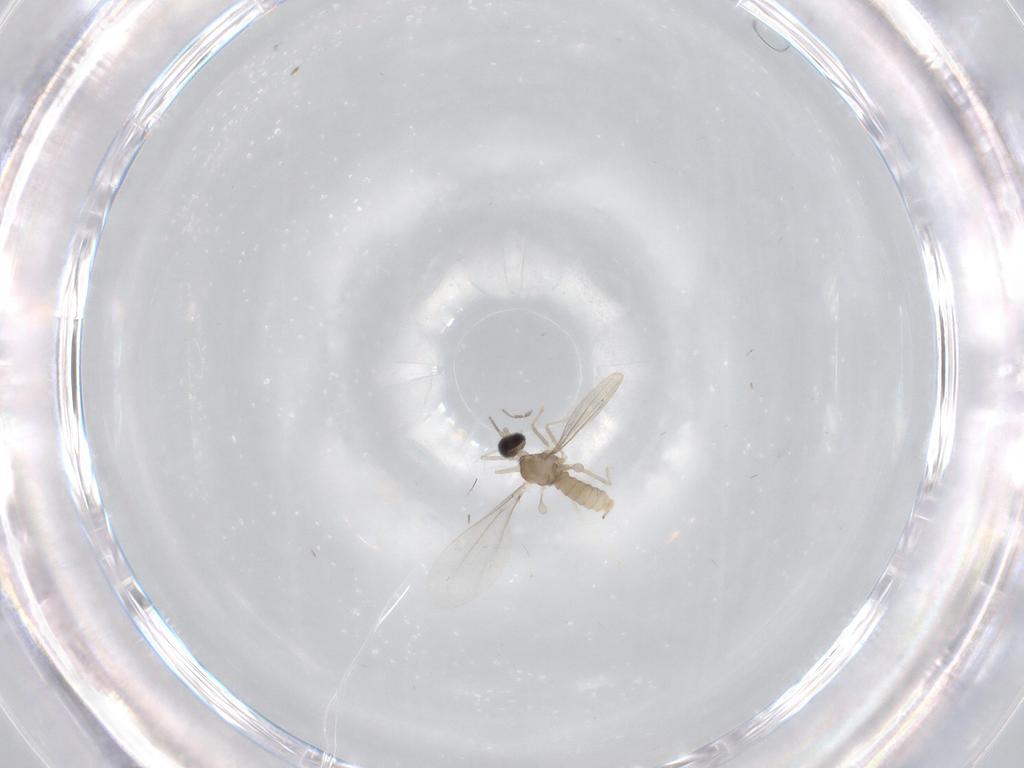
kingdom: Animalia
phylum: Arthropoda
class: Insecta
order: Diptera
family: Cecidomyiidae
